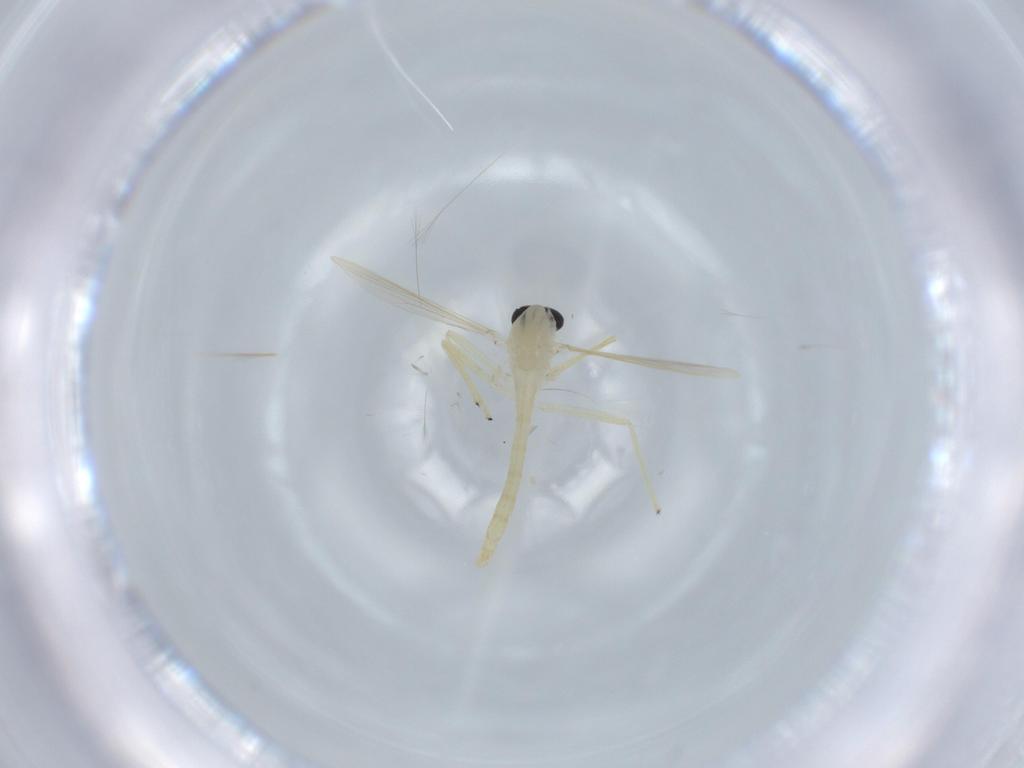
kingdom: Animalia
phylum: Arthropoda
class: Insecta
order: Diptera
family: Chironomidae
